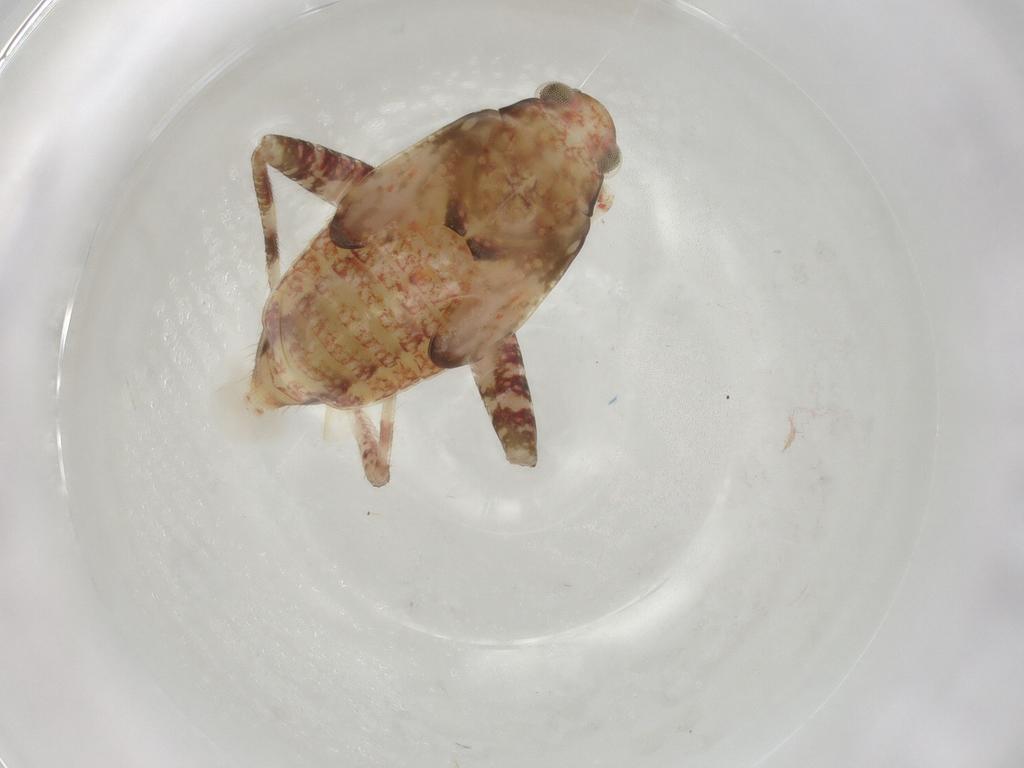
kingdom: Animalia
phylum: Arthropoda
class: Insecta
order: Hemiptera
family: Miridae
